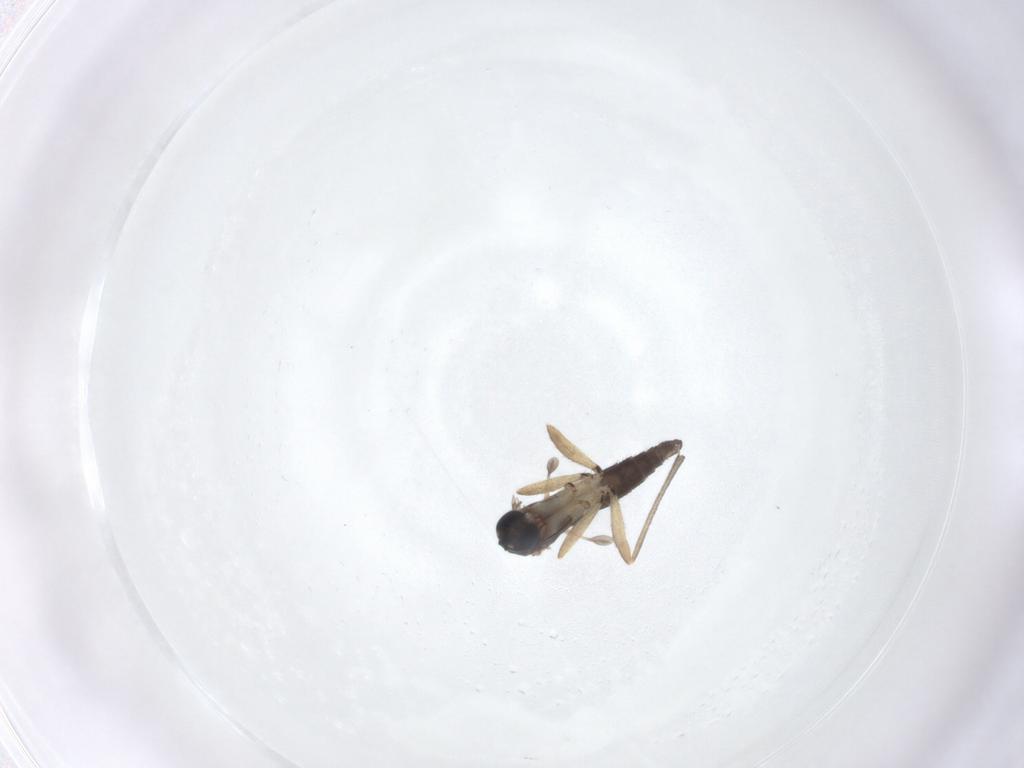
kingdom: Animalia
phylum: Arthropoda
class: Insecta
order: Diptera
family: Sciaridae
